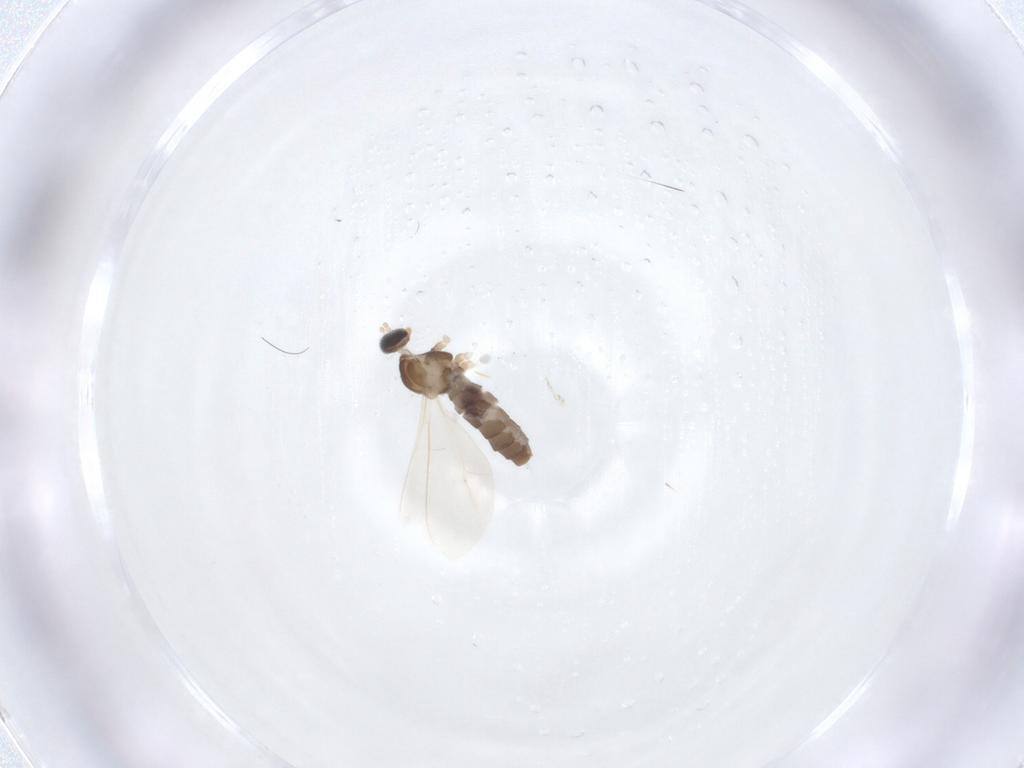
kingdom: Animalia
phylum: Arthropoda
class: Insecta
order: Diptera
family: Cecidomyiidae
